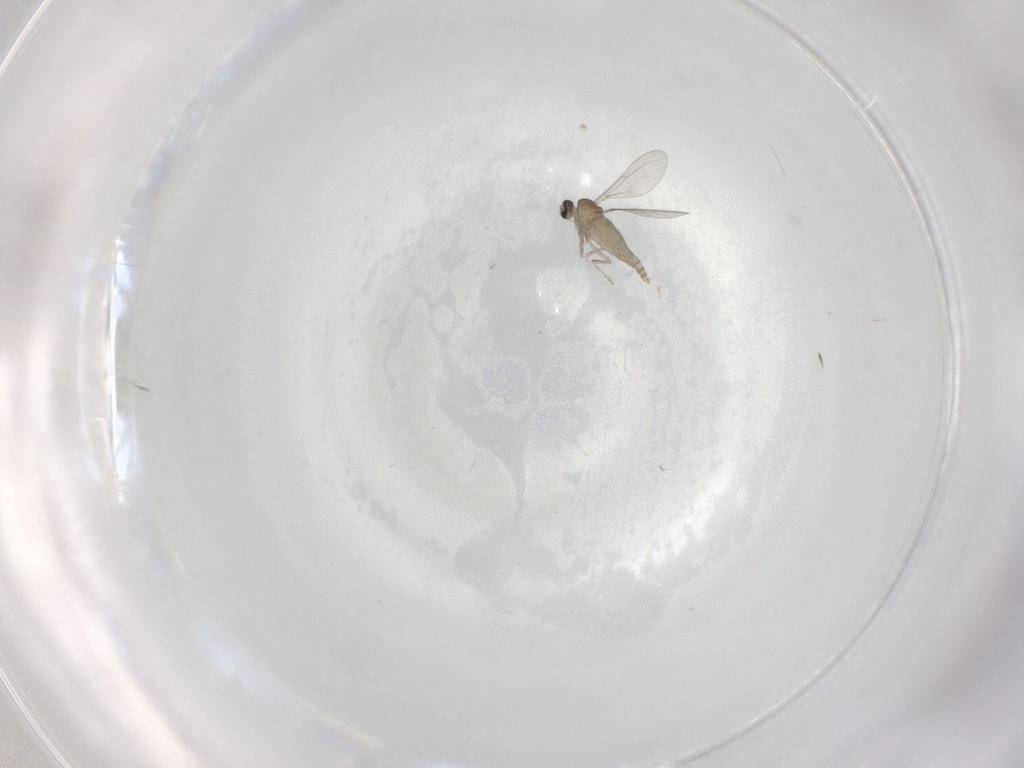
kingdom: Animalia
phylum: Arthropoda
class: Insecta
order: Diptera
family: Cecidomyiidae
